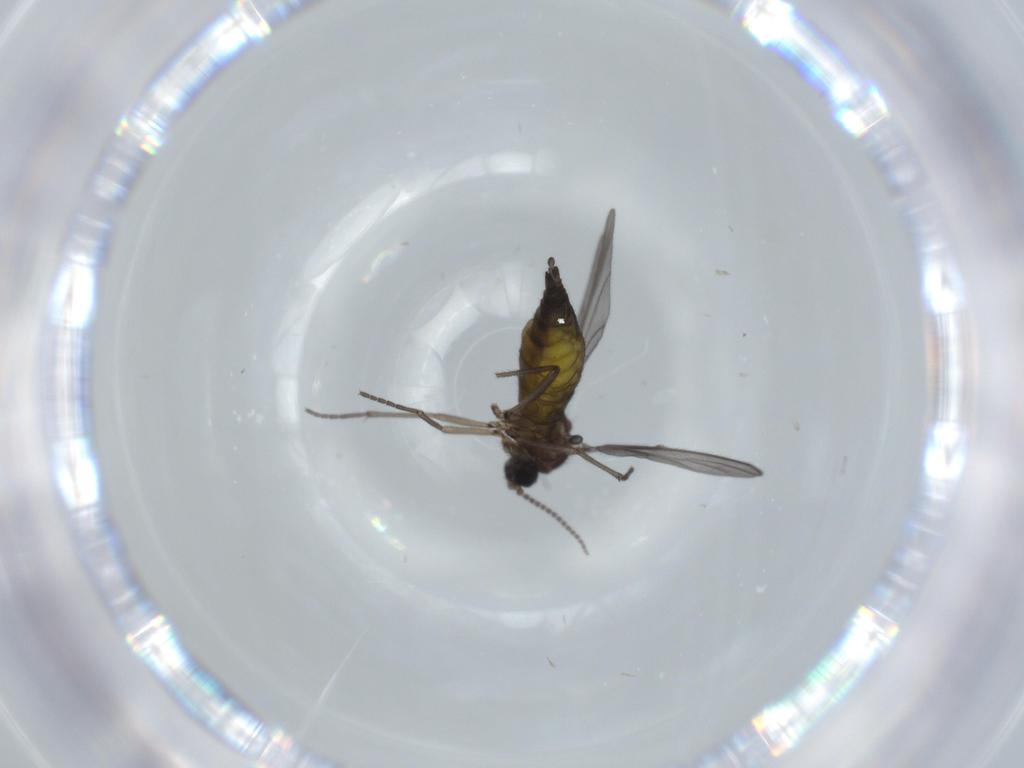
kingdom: Animalia
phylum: Arthropoda
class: Insecta
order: Diptera
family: Sciaridae
